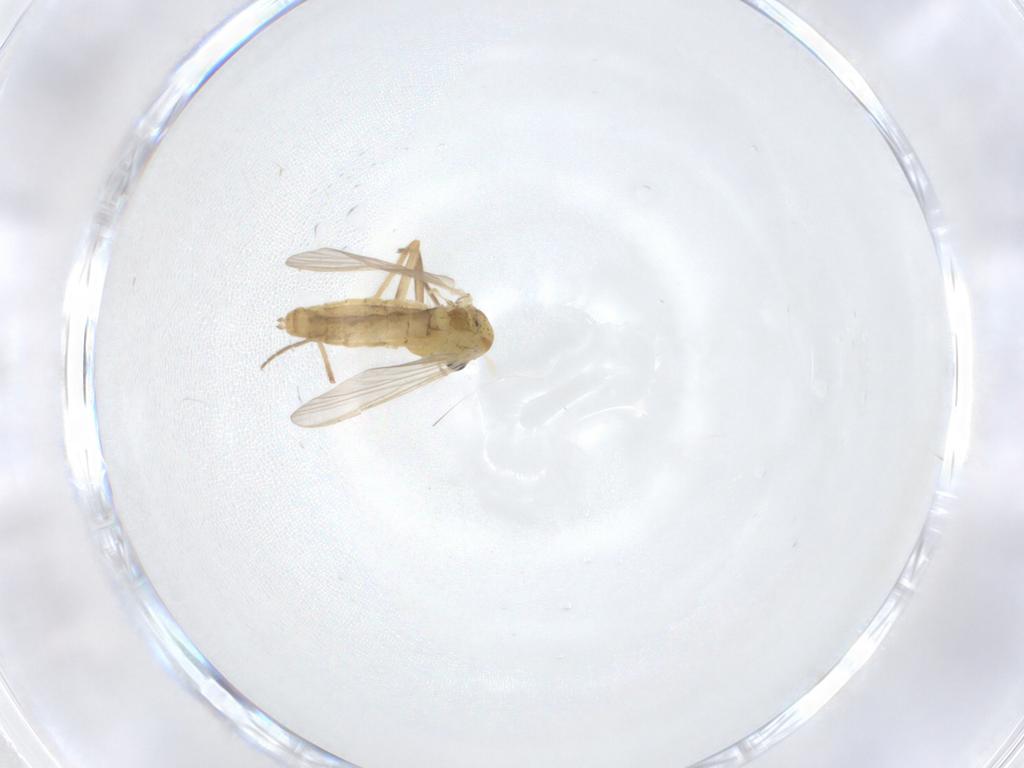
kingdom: Animalia
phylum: Arthropoda
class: Insecta
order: Diptera
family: Chironomidae
